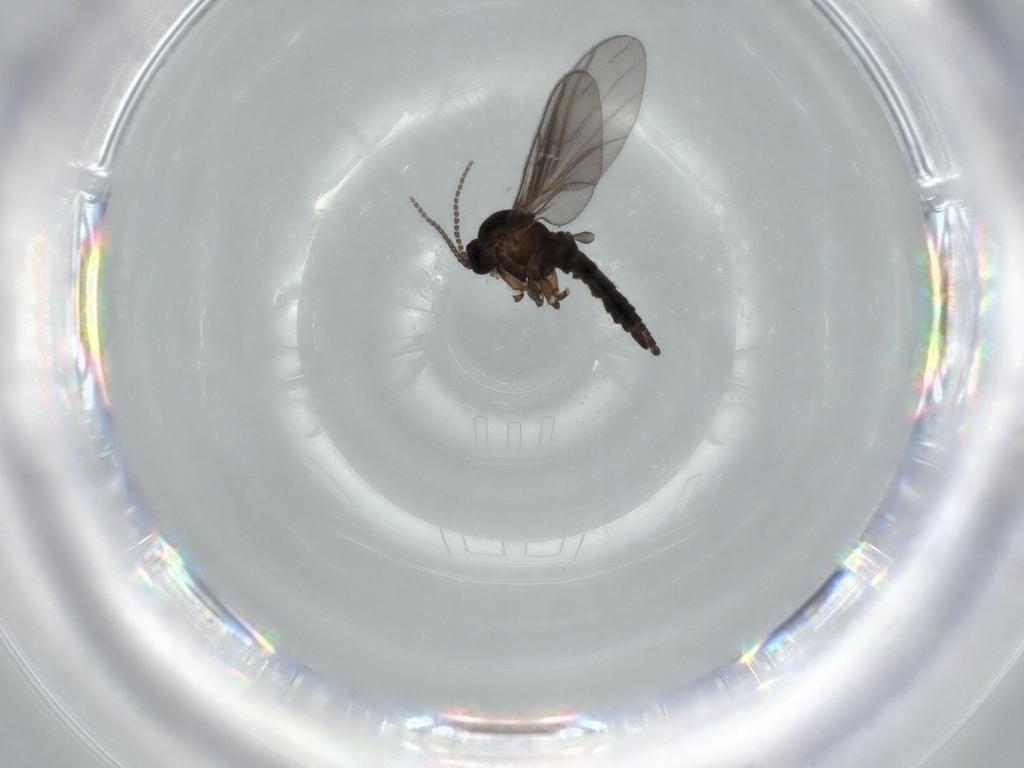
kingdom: Animalia
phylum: Arthropoda
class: Insecta
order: Diptera
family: Sciaridae
